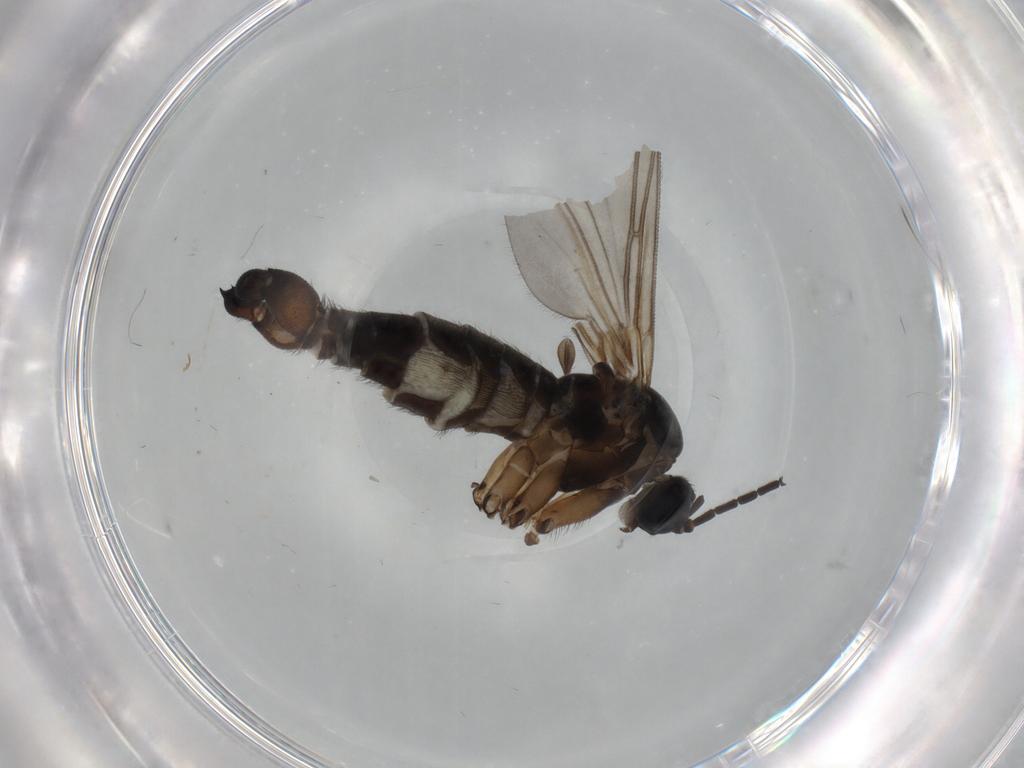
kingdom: Animalia
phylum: Arthropoda
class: Insecta
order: Diptera
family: Sciaridae
